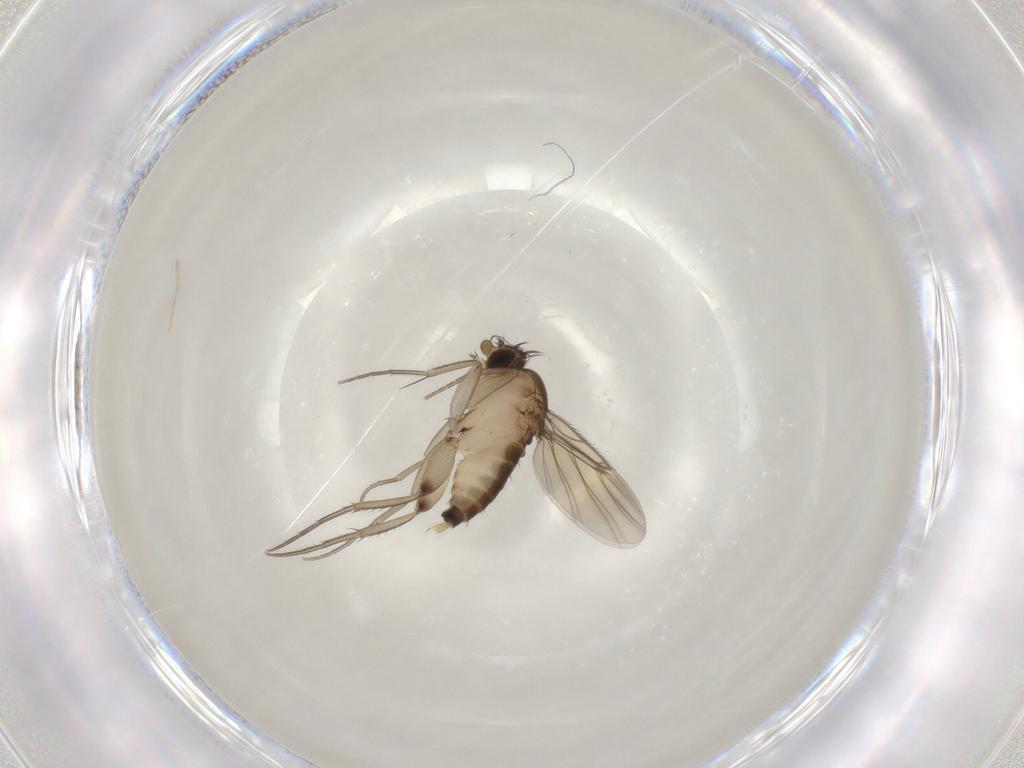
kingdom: Animalia
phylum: Arthropoda
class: Insecta
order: Diptera
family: Phoridae
